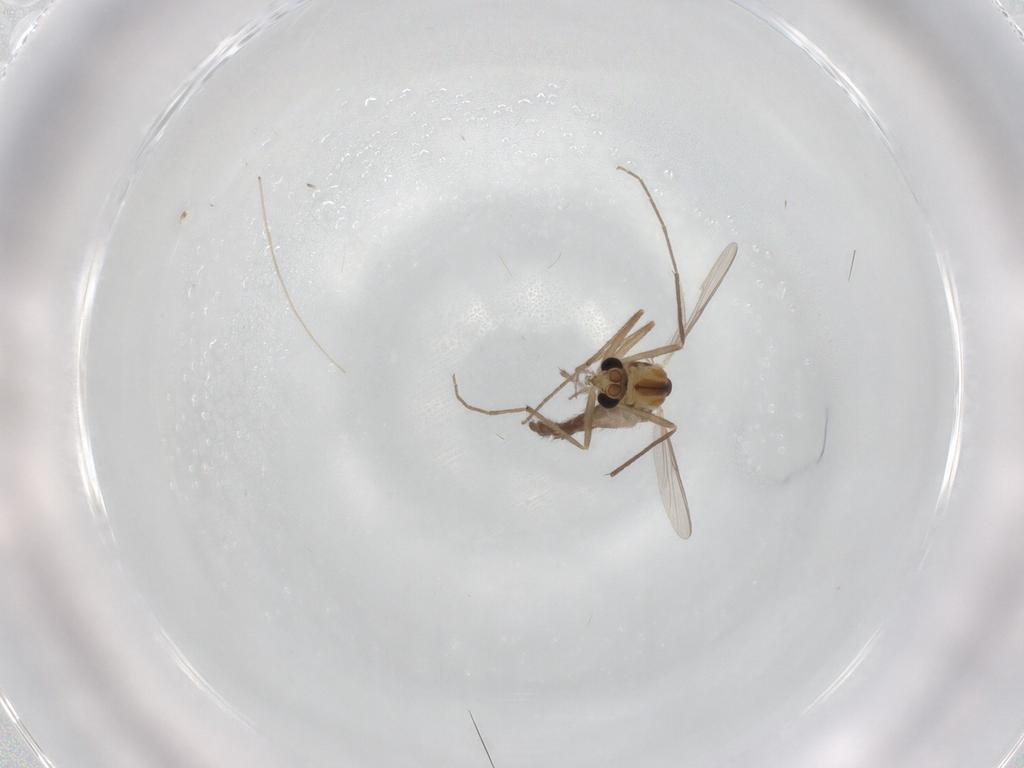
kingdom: Animalia
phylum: Arthropoda
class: Insecta
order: Diptera
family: Chironomidae
